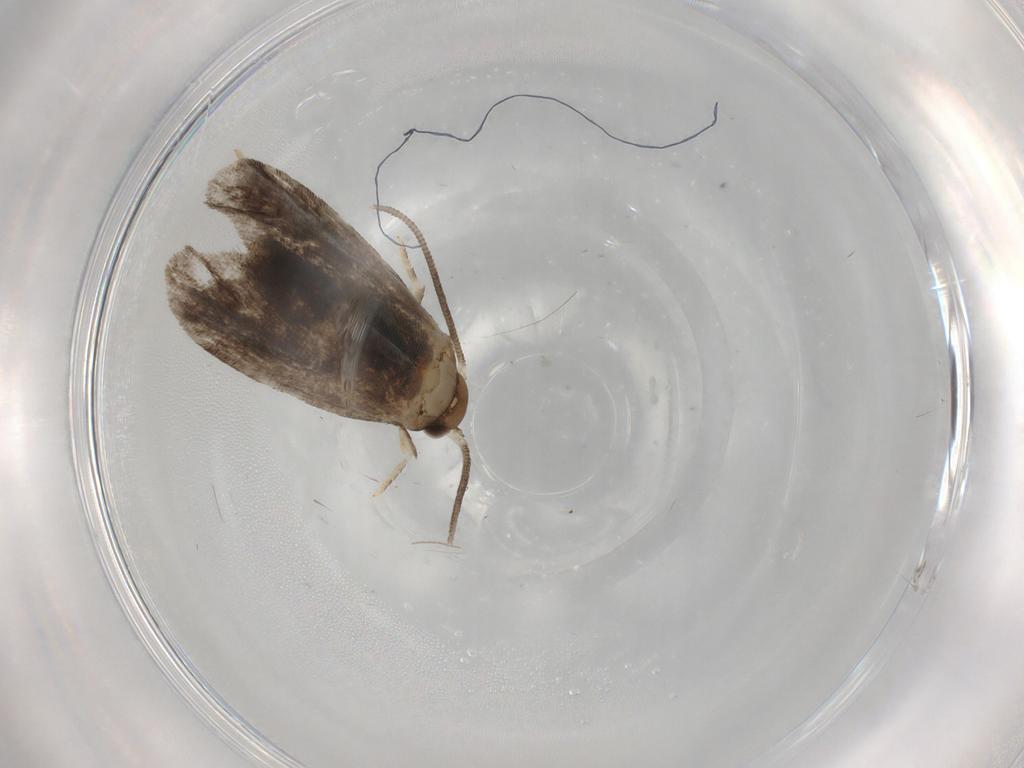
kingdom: Animalia
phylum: Arthropoda
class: Insecta
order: Lepidoptera
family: Dryadaulidae
